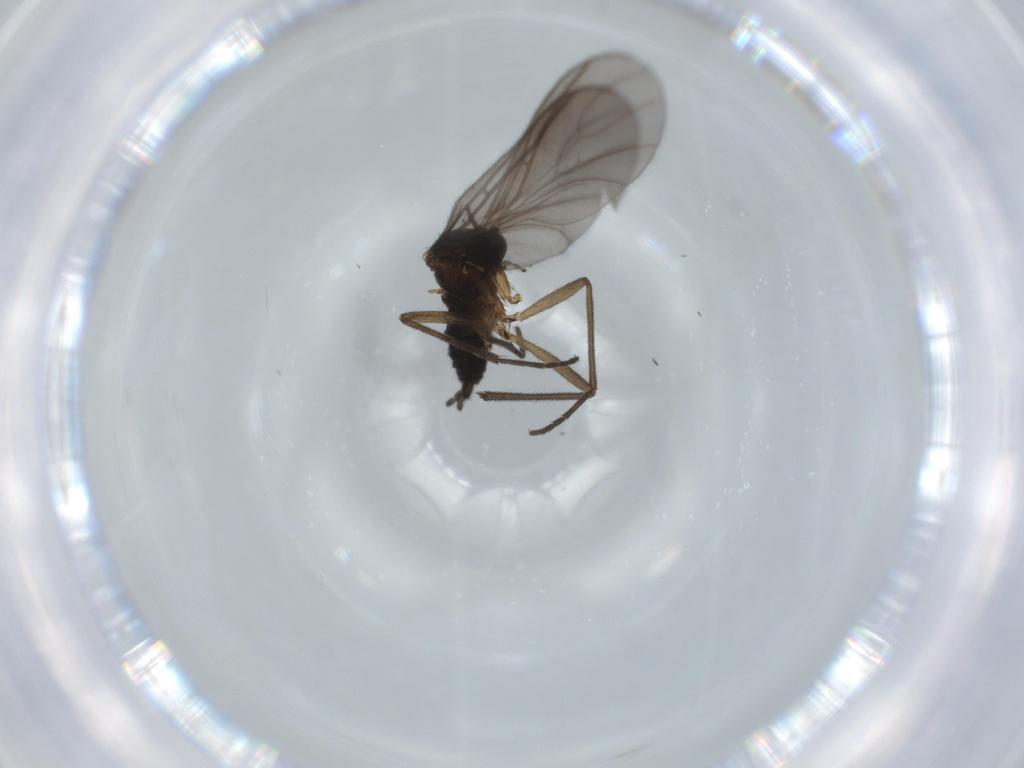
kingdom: Animalia
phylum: Arthropoda
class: Insecta
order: Diptera
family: Sciaridae
